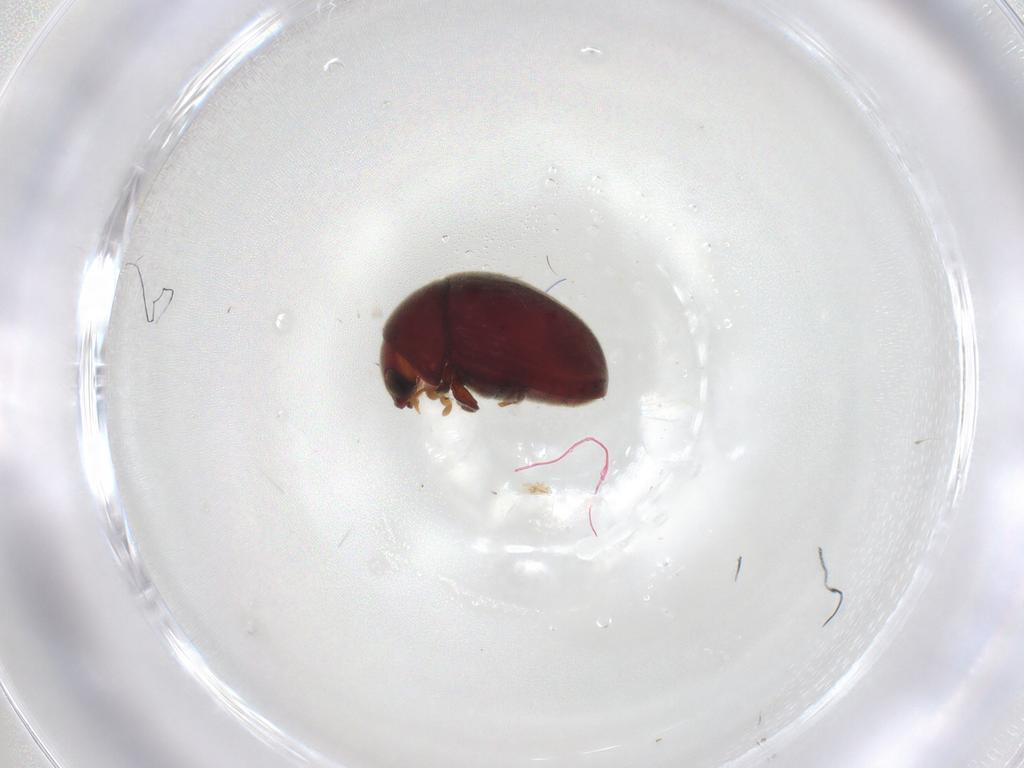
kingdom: Animalia
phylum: Arthropoda
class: Insecta
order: Coleoptera
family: Ptinidae
